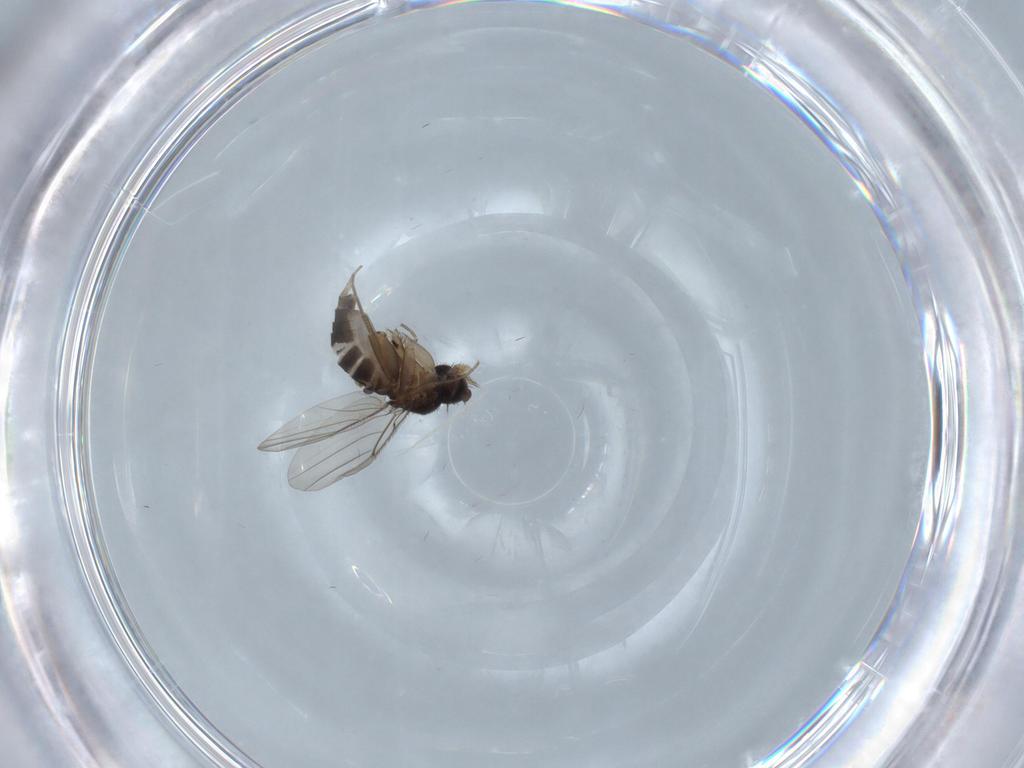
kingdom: Animalia
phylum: Arthropoda
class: Insecta
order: Diptera
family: Phoridae
